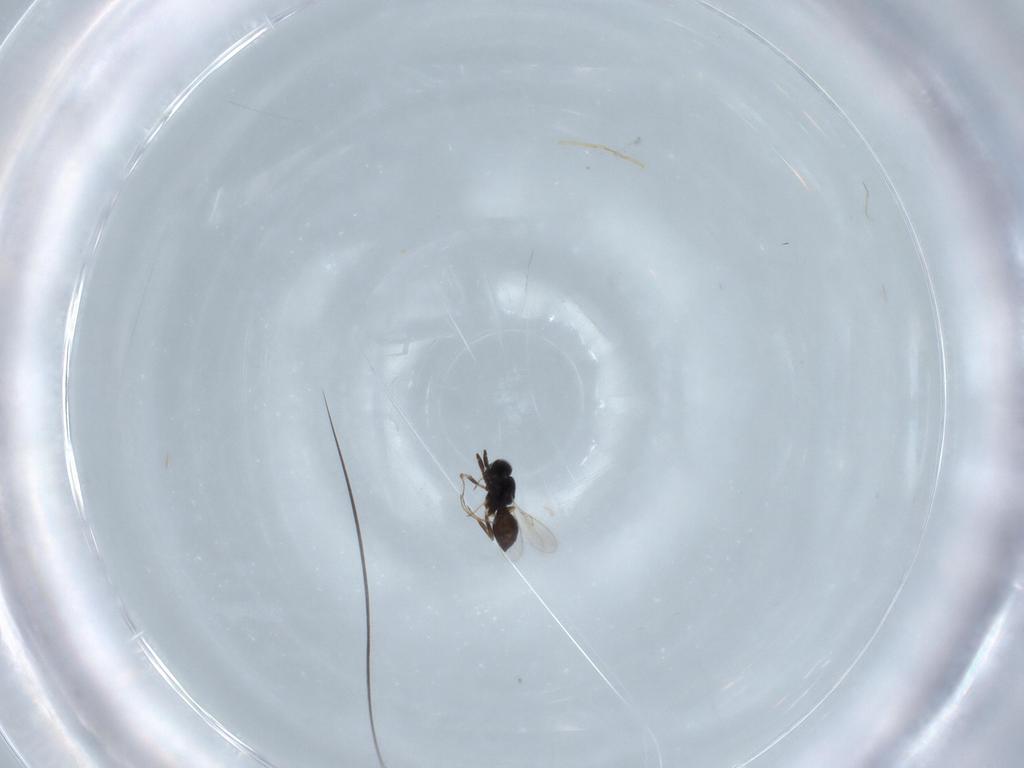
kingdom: Animalia
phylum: Arthropoda
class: Insecta
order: Hymenoptera
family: Scelionidae
